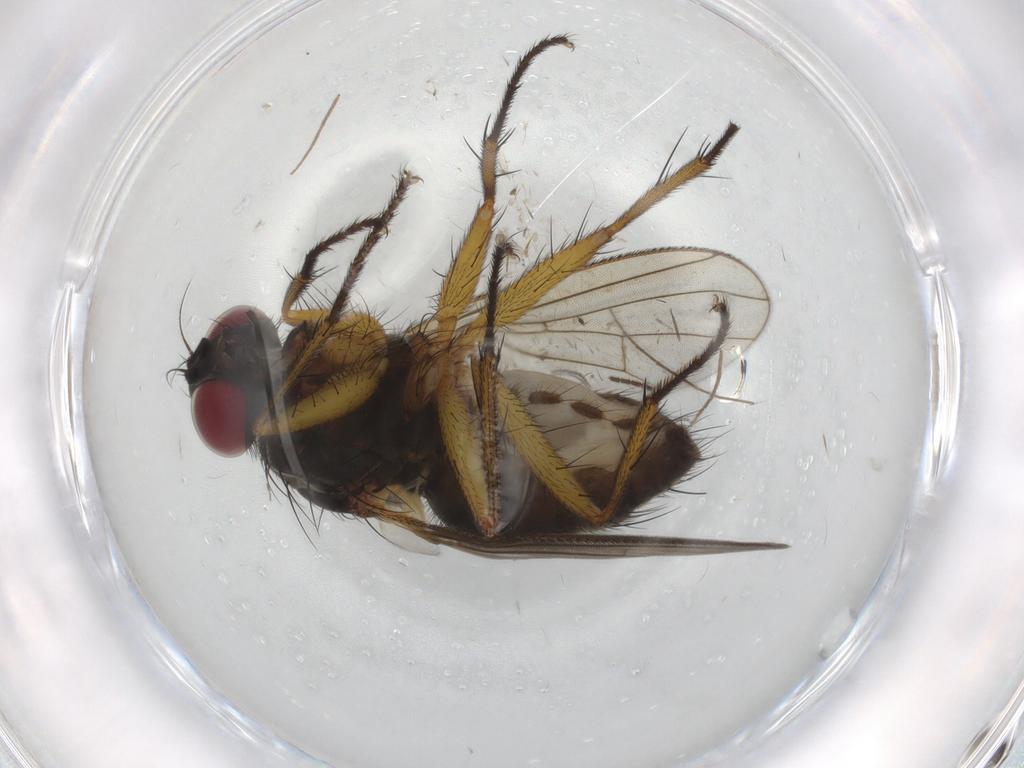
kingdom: Animalia
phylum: Arthropoda
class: Insecta
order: Diptera
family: Muscidae
